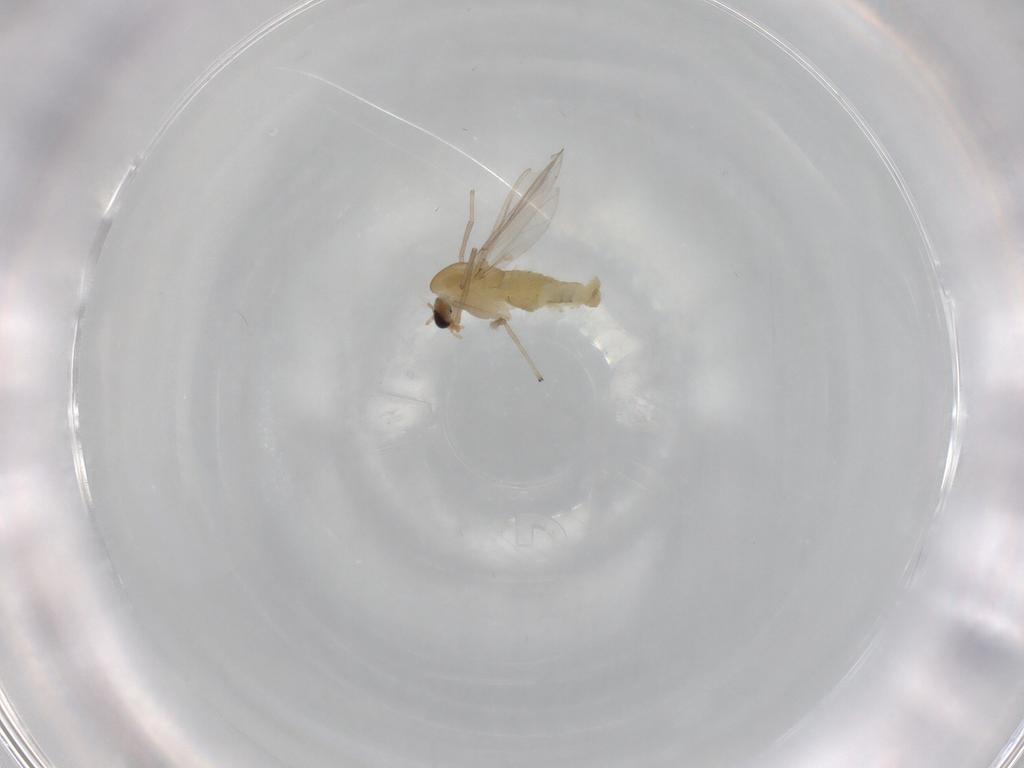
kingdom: Animalia
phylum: Arthropoda
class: Insecta
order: Diptera
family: Chironomidae
